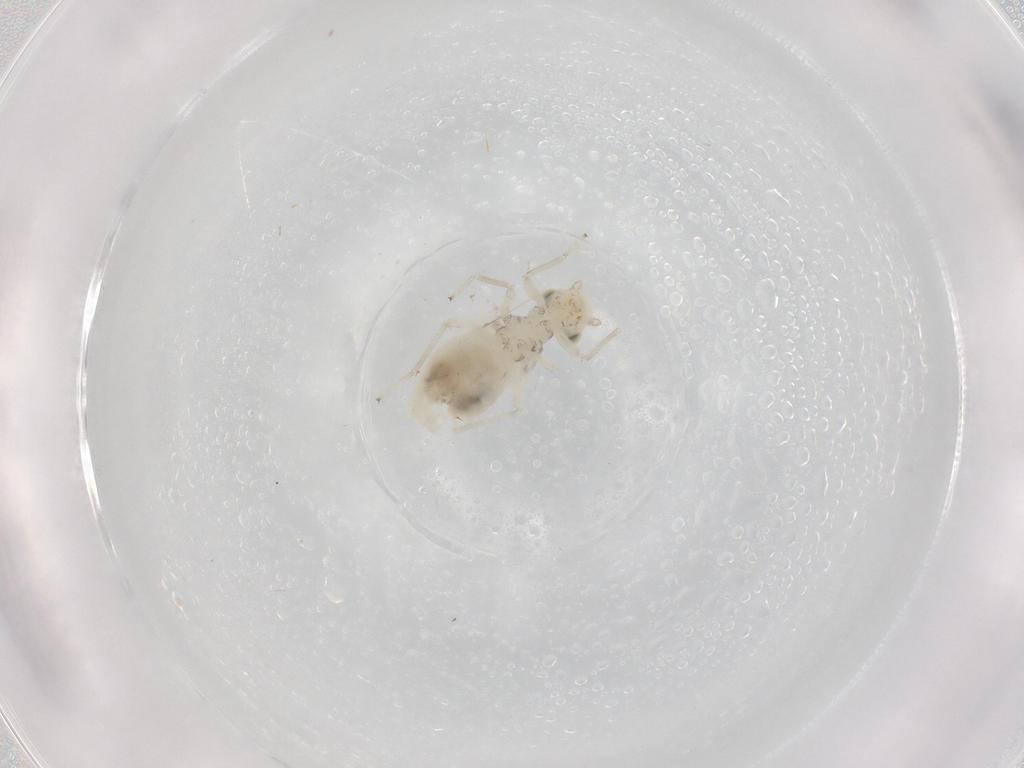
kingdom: Animalia
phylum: Arthropoda
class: Insecta
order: Psocodea
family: Caeciliusidae
